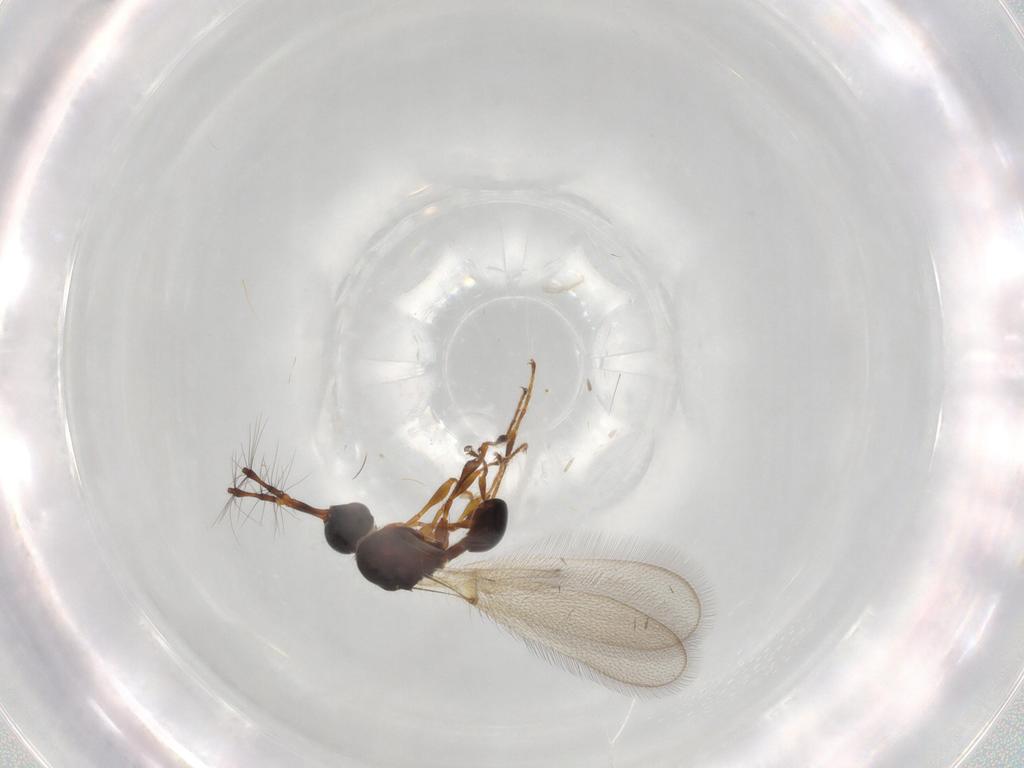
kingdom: Animalia
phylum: Arthropoda
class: Insecta
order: Hymenoptera
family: Diapriidae
